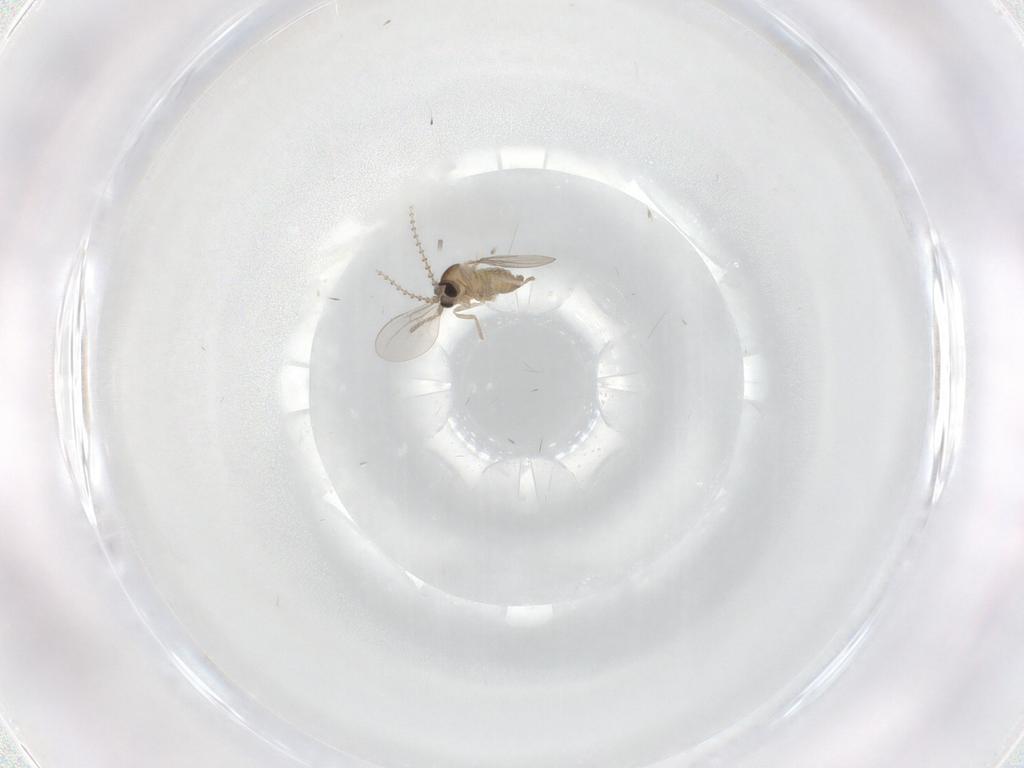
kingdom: Animalia
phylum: Arthropoda
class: Insecta
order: Diptera
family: Cecidomyiidae
